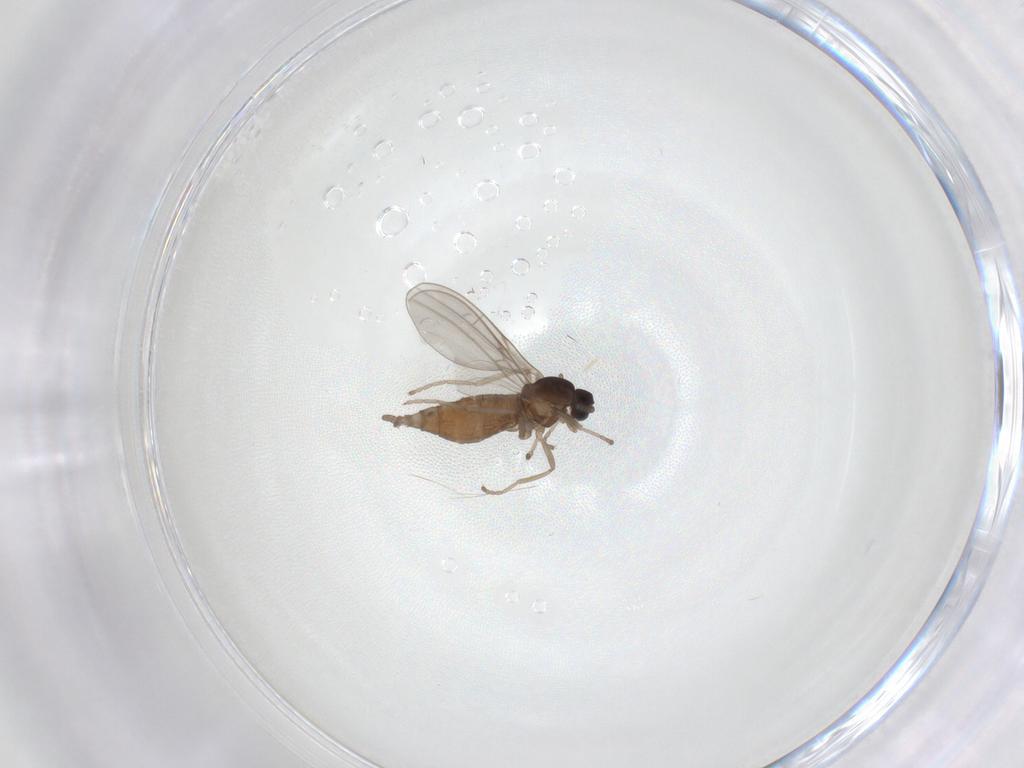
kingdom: Animalia
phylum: Arthropoda
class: Insecta
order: Diptera
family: Cecidomyiidae
